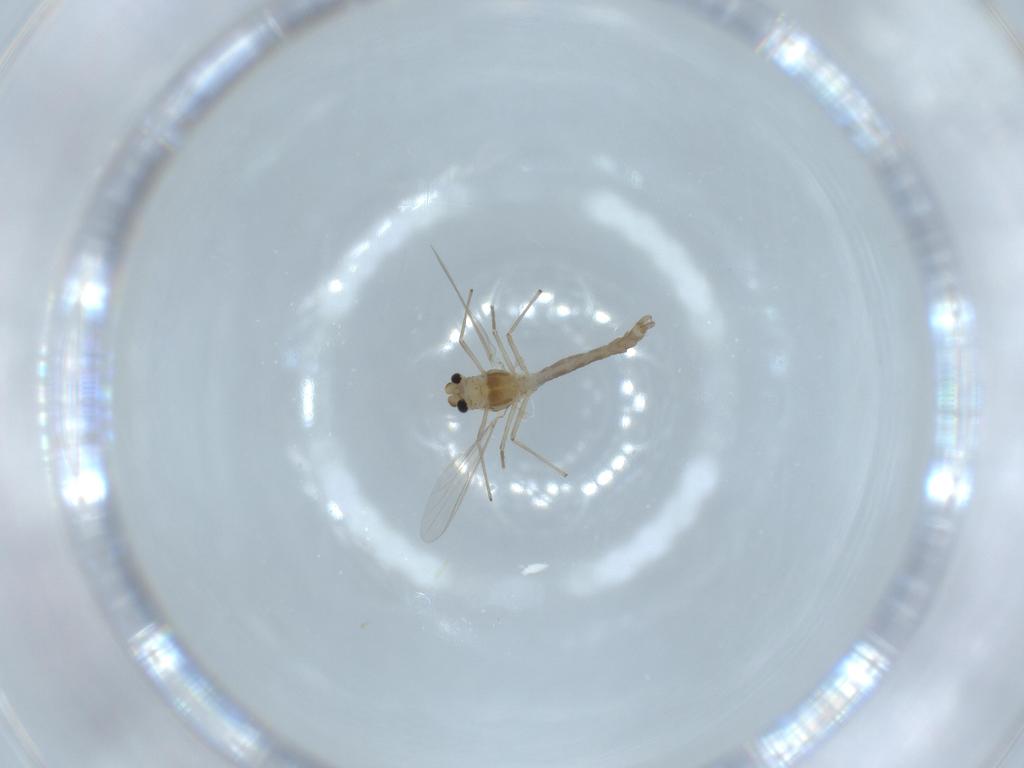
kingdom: Animalia
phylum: Arthropoda
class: Insecta
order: Diptera
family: Chironomidae
